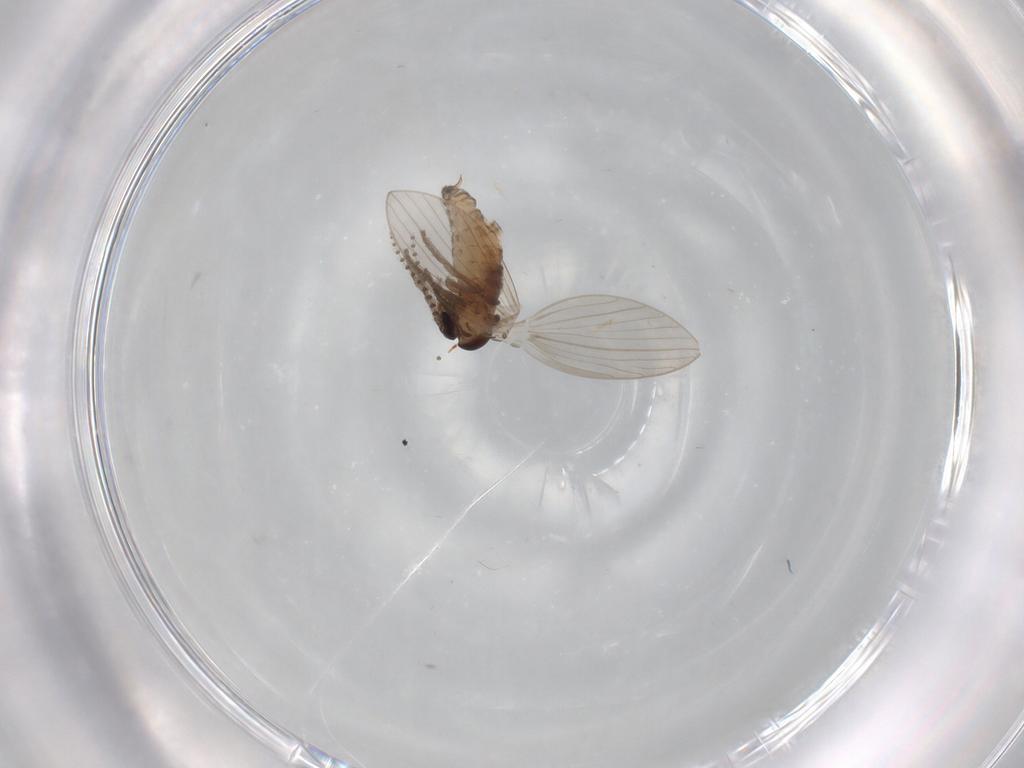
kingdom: Animalia
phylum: Arthropoda
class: Insecta
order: Diptera
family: Psychodidae
